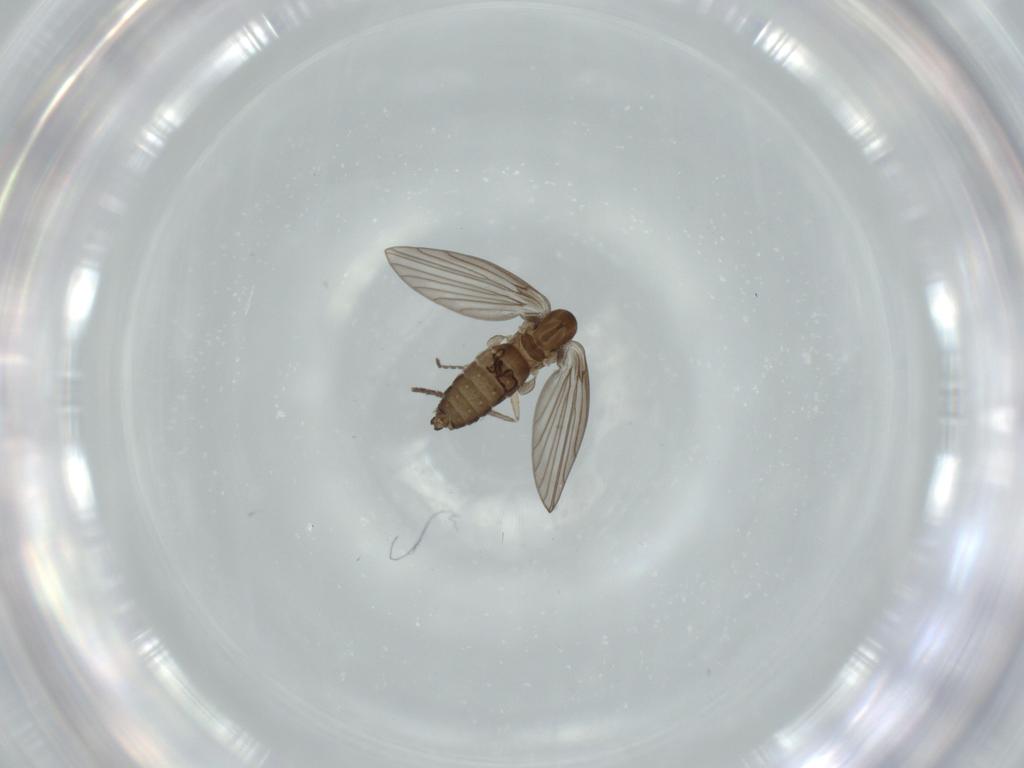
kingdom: Animalia
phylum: Arthropoda
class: Insecta
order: Diptera
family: Psychodidae
